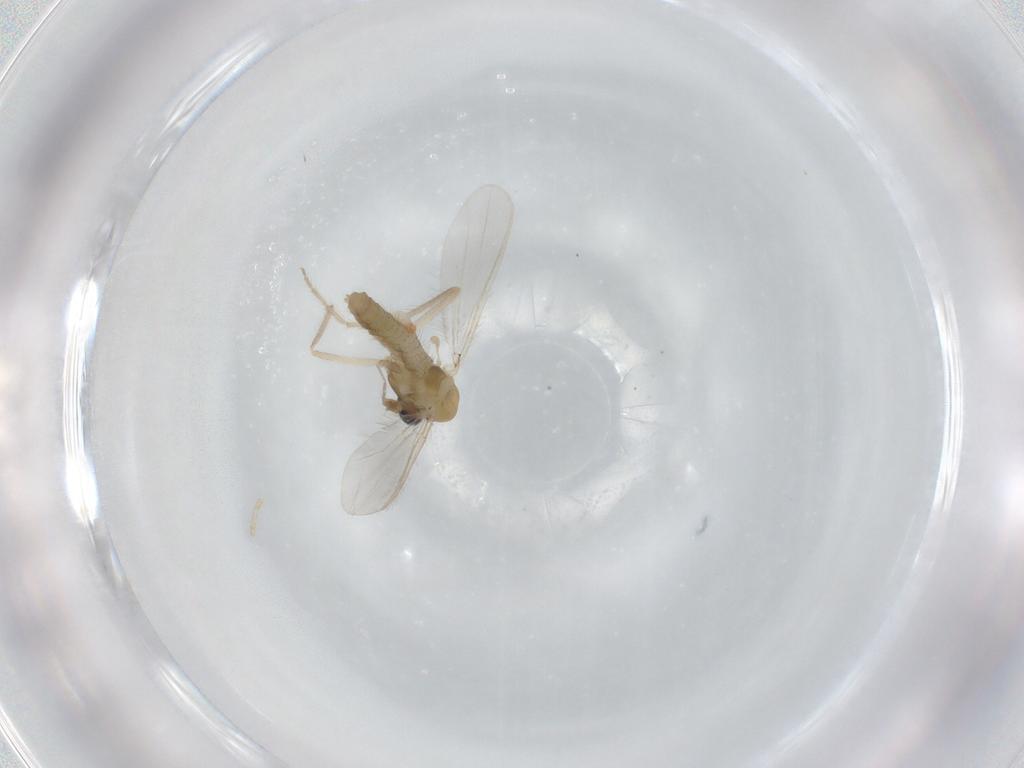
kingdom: Animalia
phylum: Arthropoda
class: Insecta
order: Diptera
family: Chironomidae
